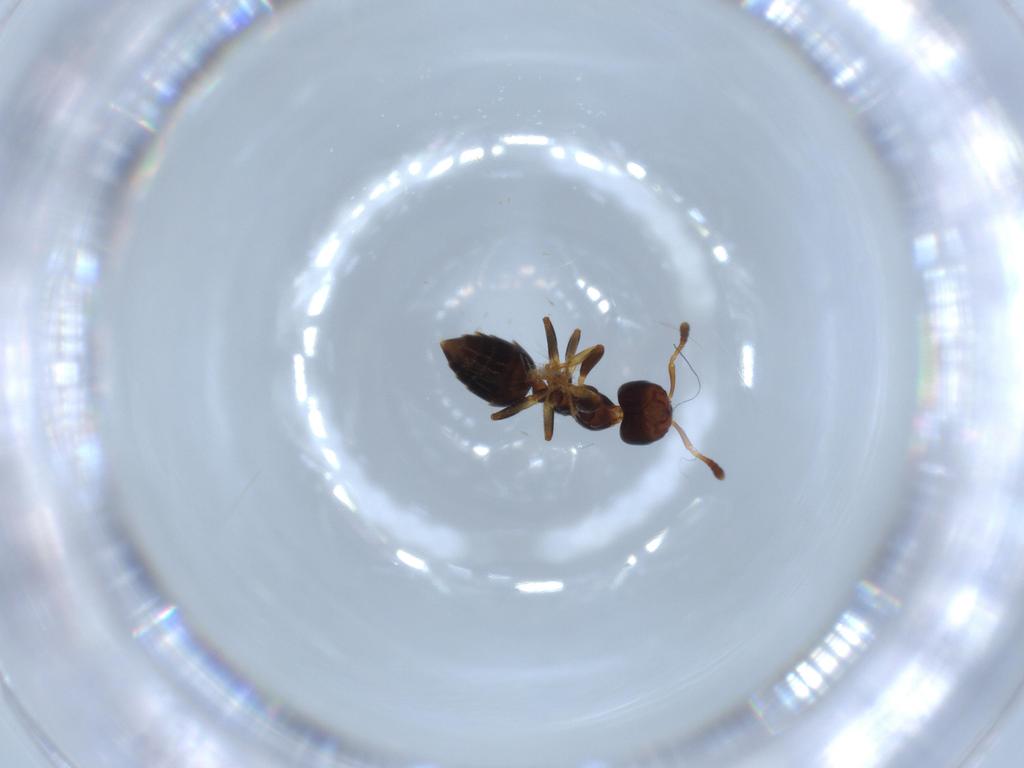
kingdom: Animalia
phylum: Arthropoda
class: Insecta
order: Hymenoptera
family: Formicidae
